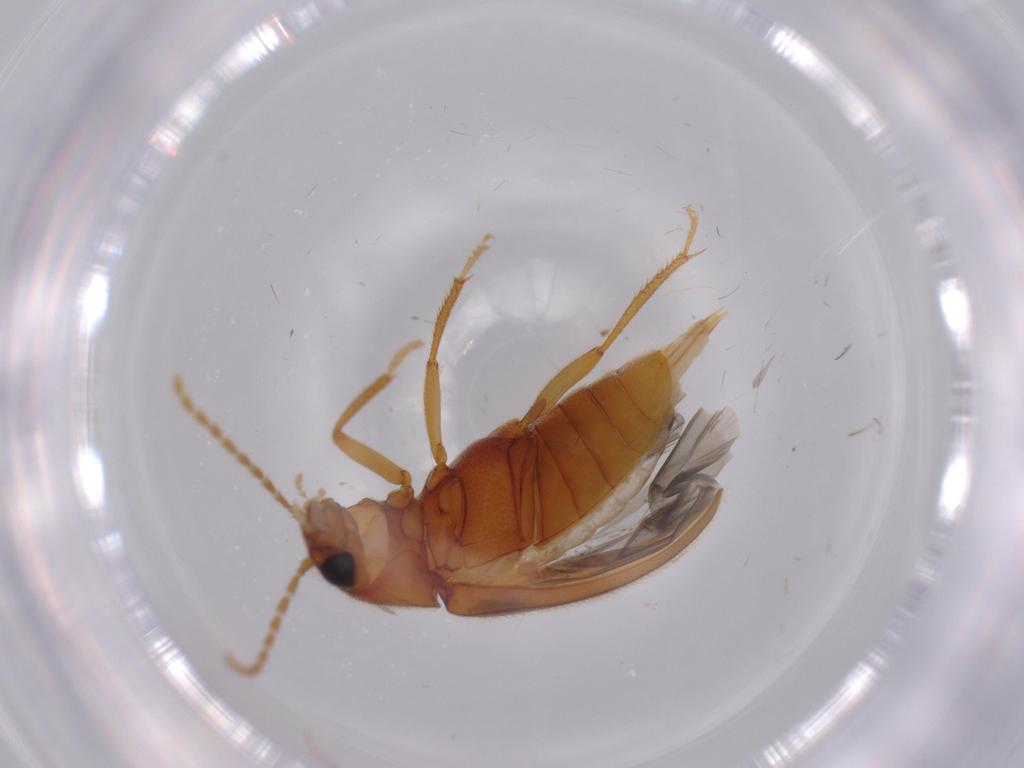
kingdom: Animalia
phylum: Arthropoda
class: Insecta
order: Coleoptera
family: Ptilodactylidae
